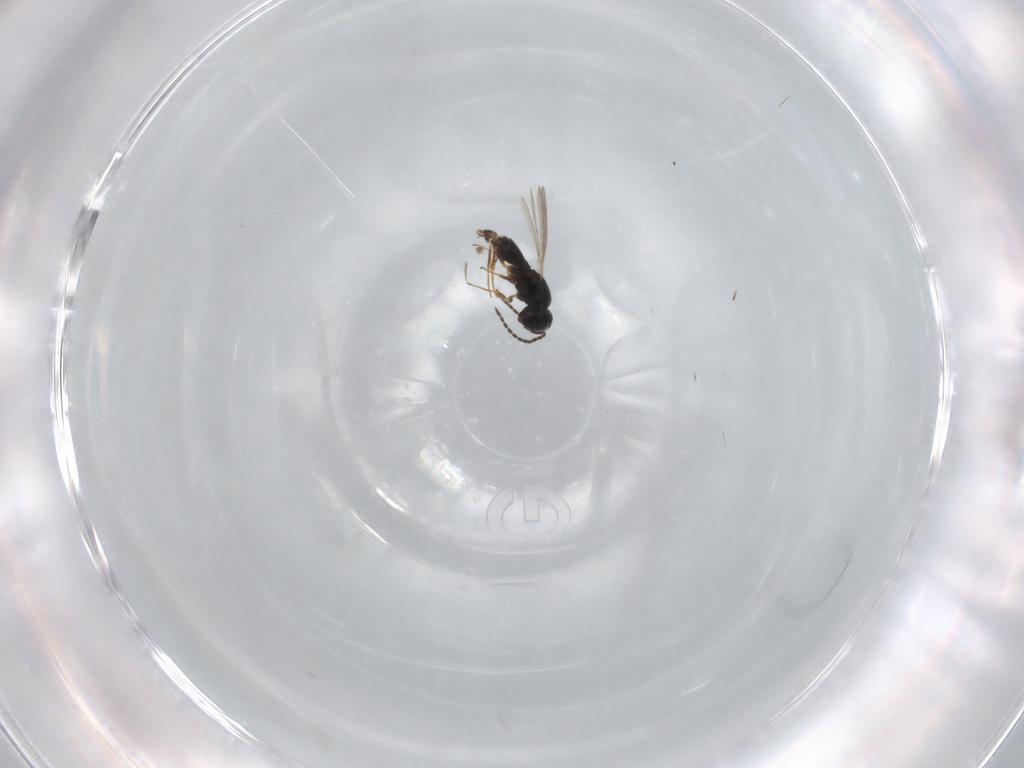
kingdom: Animalia
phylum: Arthropoda
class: Insecta
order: Hymenoptera
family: Scelionidae
